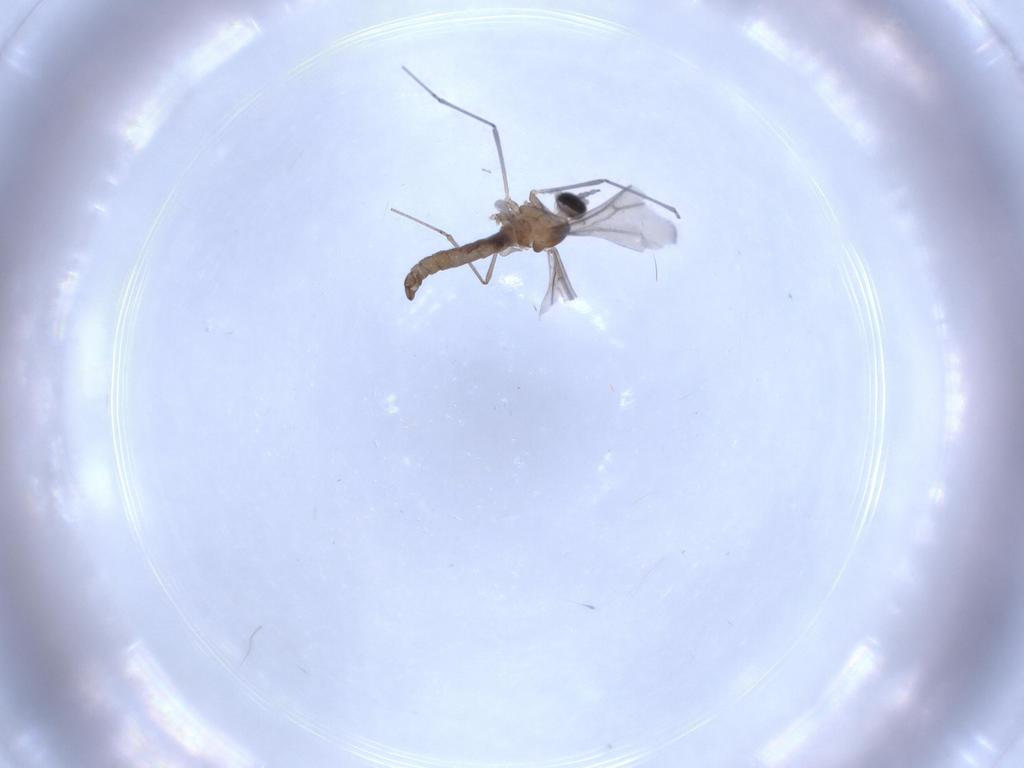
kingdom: Animalia
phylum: Arthropoda
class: Insecta
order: Diptera
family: Cecidomyiidae
